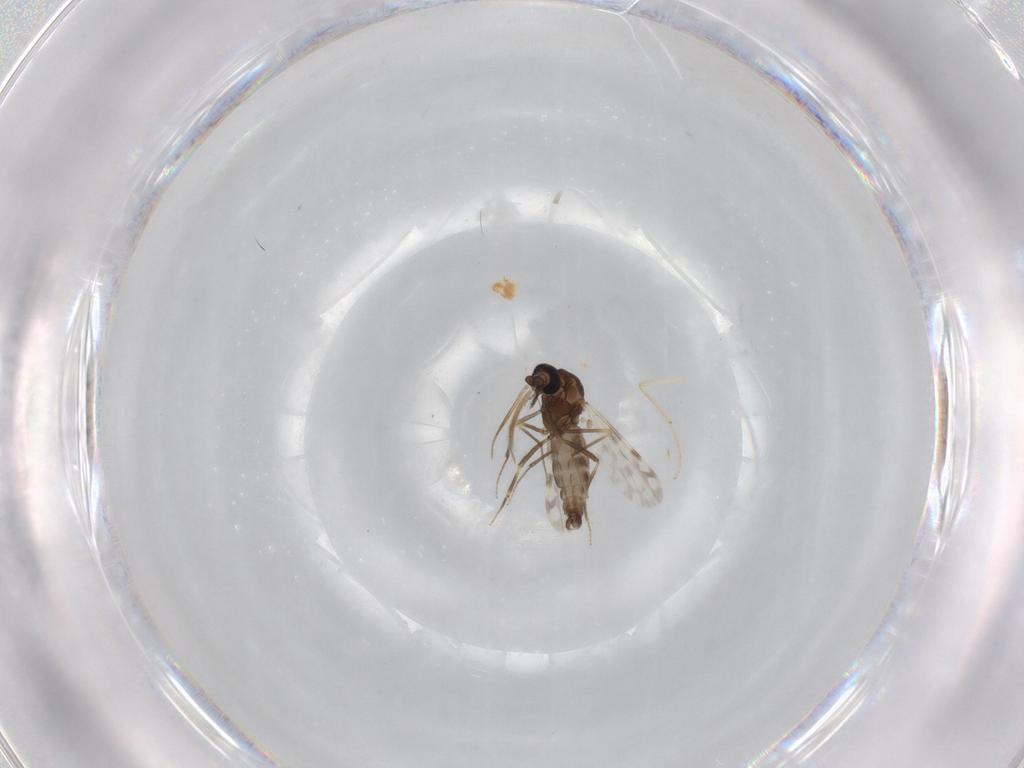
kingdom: Animalia
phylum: Arthropoda
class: Insecta
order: Diptera
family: Ceratopogonidae
